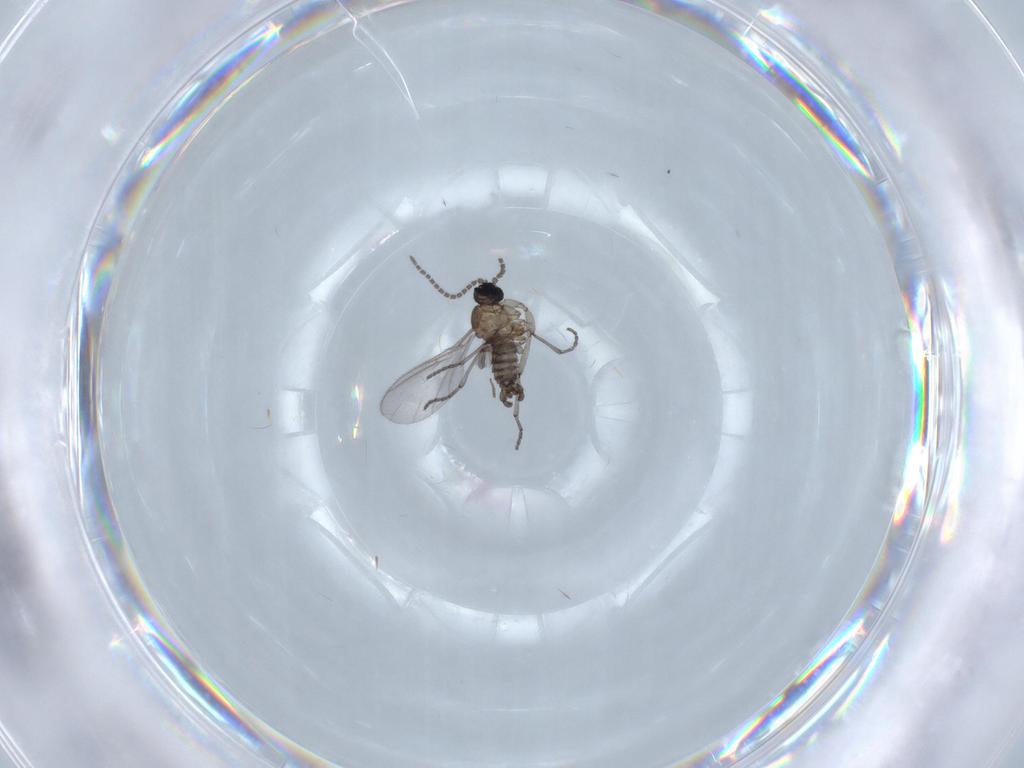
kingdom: Animalia
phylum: Arthropoda
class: Insecta
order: Diptera
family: Sciaridae
